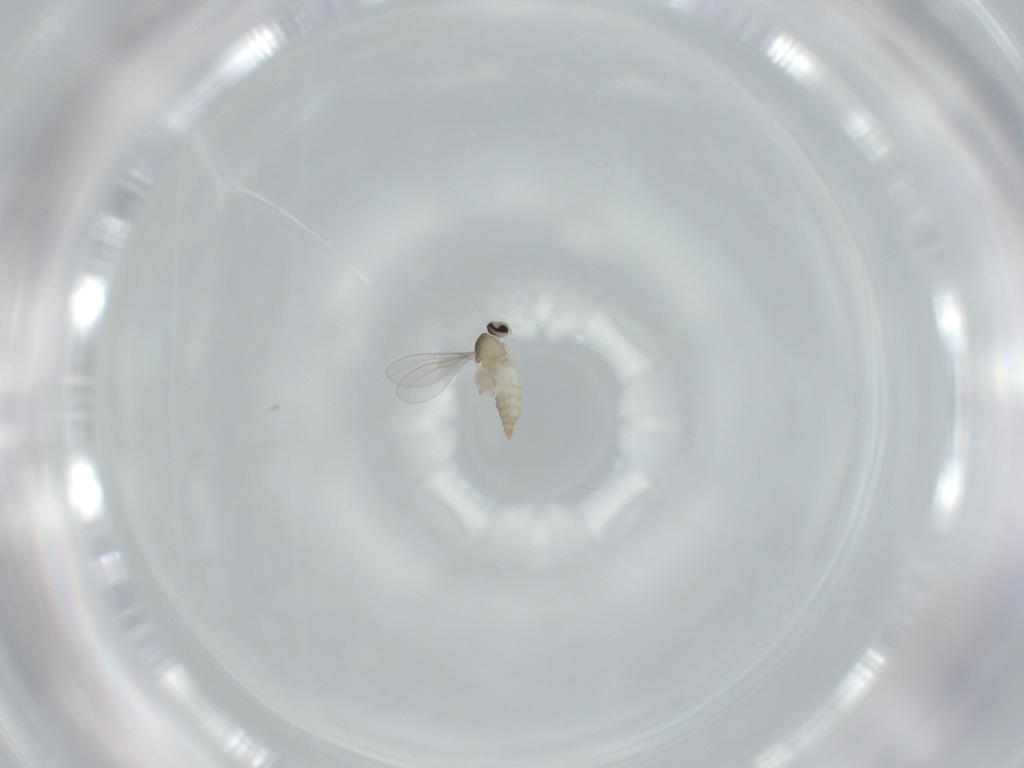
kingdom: Animalia
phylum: Arthropoda
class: Insecta
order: Diptera
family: Cecidomyiidae
